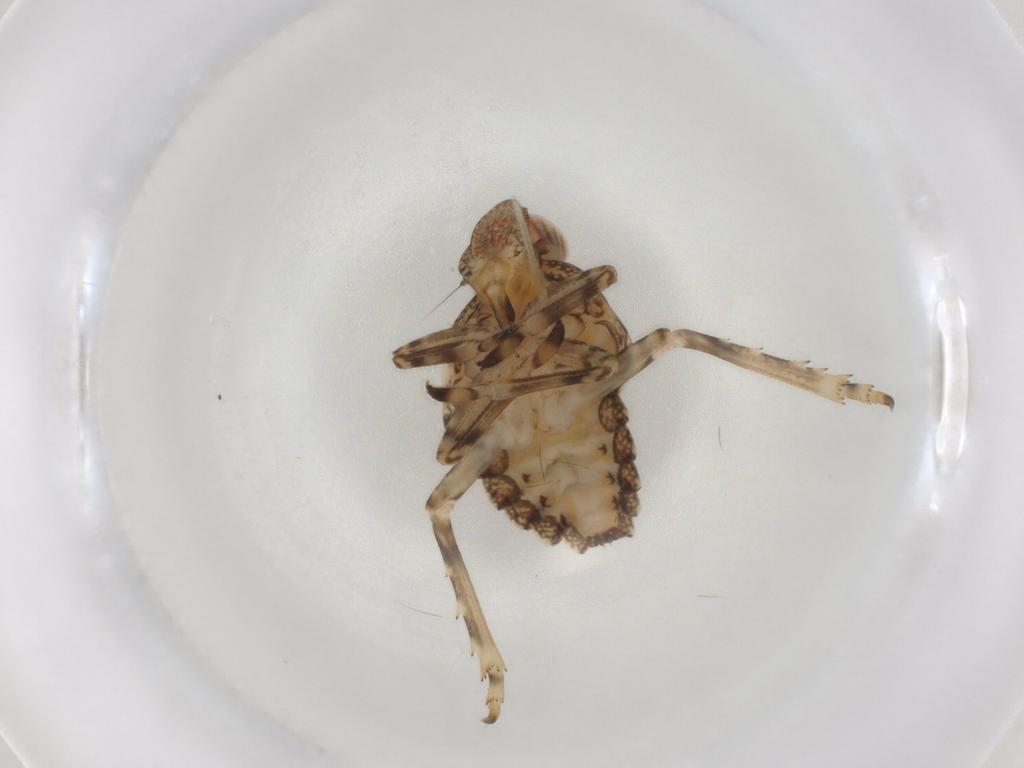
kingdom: Animalia
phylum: Arthropoda
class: Insecta
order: Hemiptera
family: Tropiduchidae
